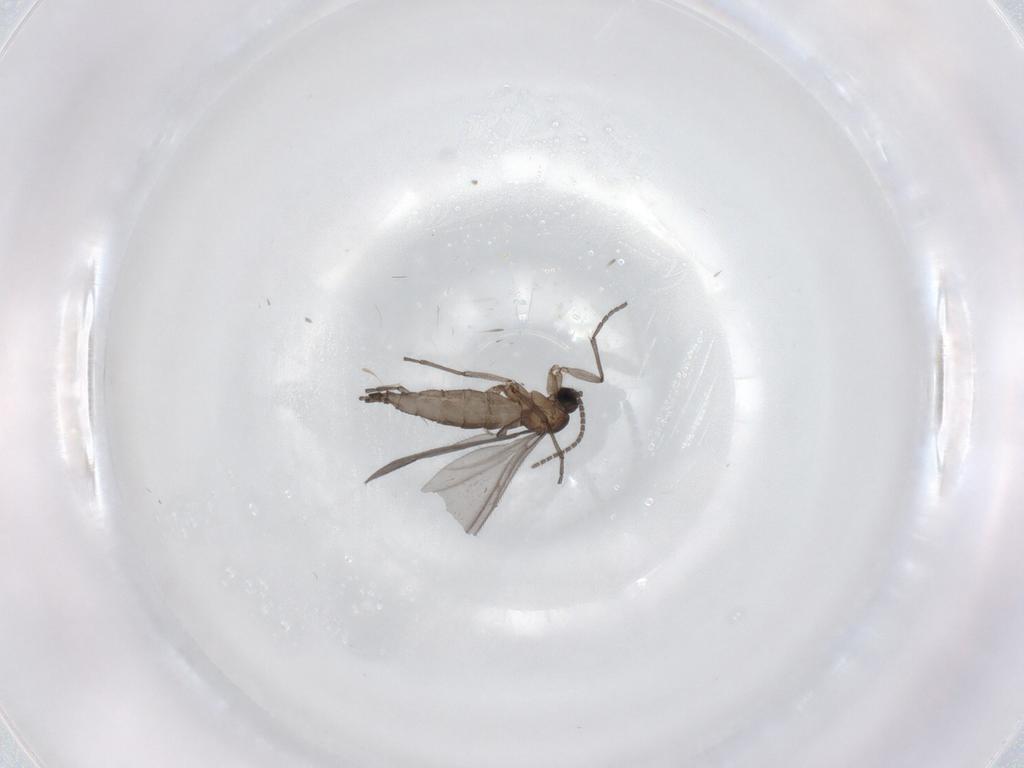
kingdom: Animalia
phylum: Arthropoda
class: Insecta
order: Diptera
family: Sciaridae
